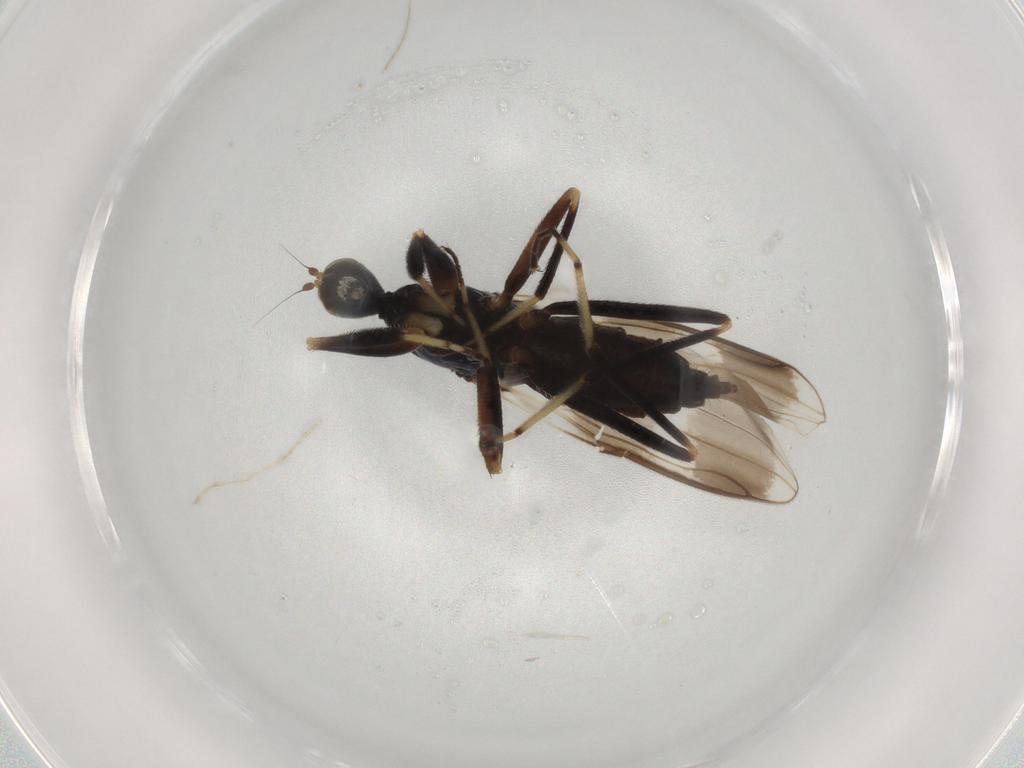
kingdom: Animalia
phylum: Arthropoda
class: Insecta
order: Diptera
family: Hybotidae
